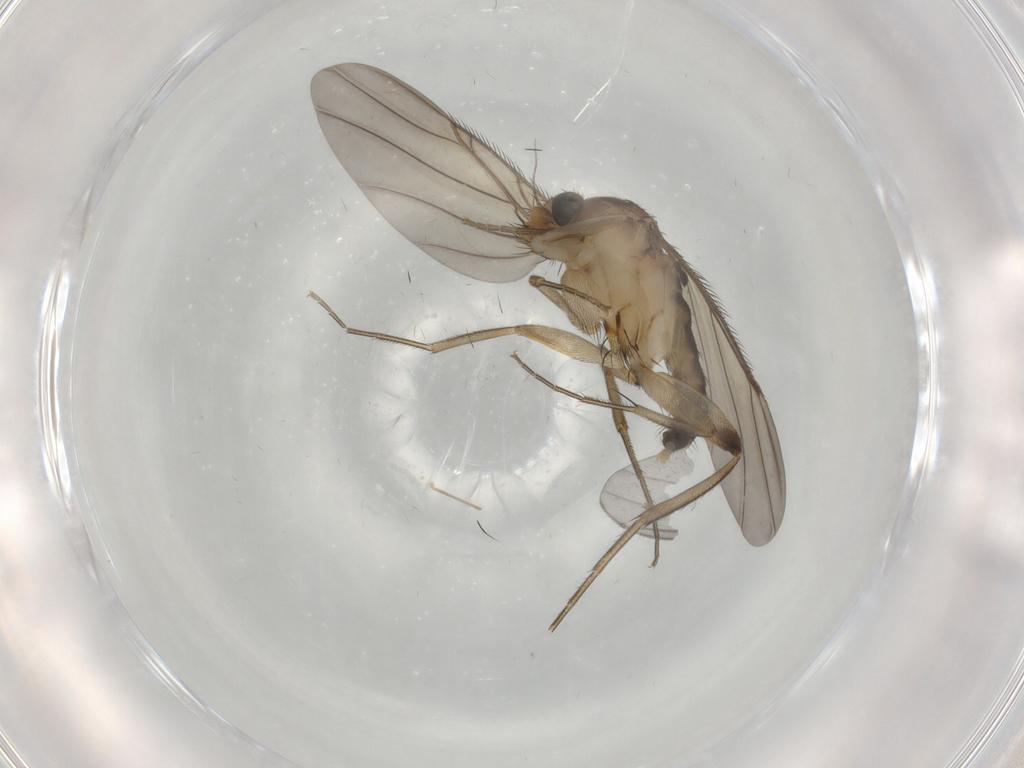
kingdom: Animalia
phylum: Arthropoda
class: Insecta
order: Diptera
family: Phoridae
